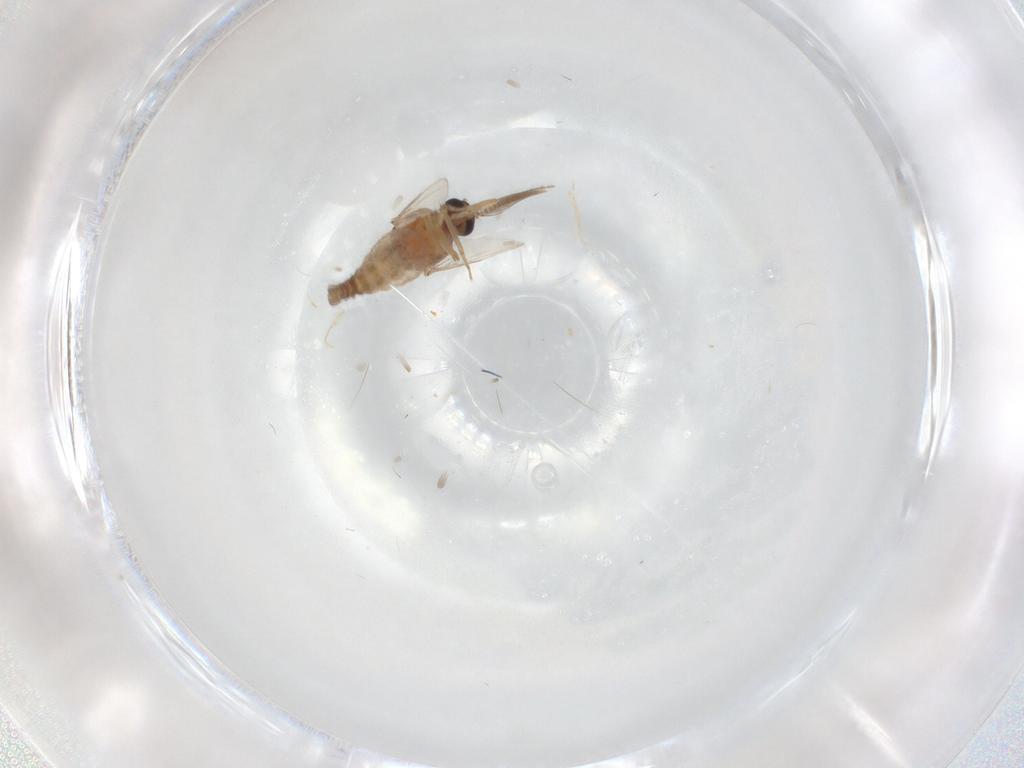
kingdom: Animalia
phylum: Arthropoda
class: Insecta
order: Diptera
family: Ceratopogonidae
